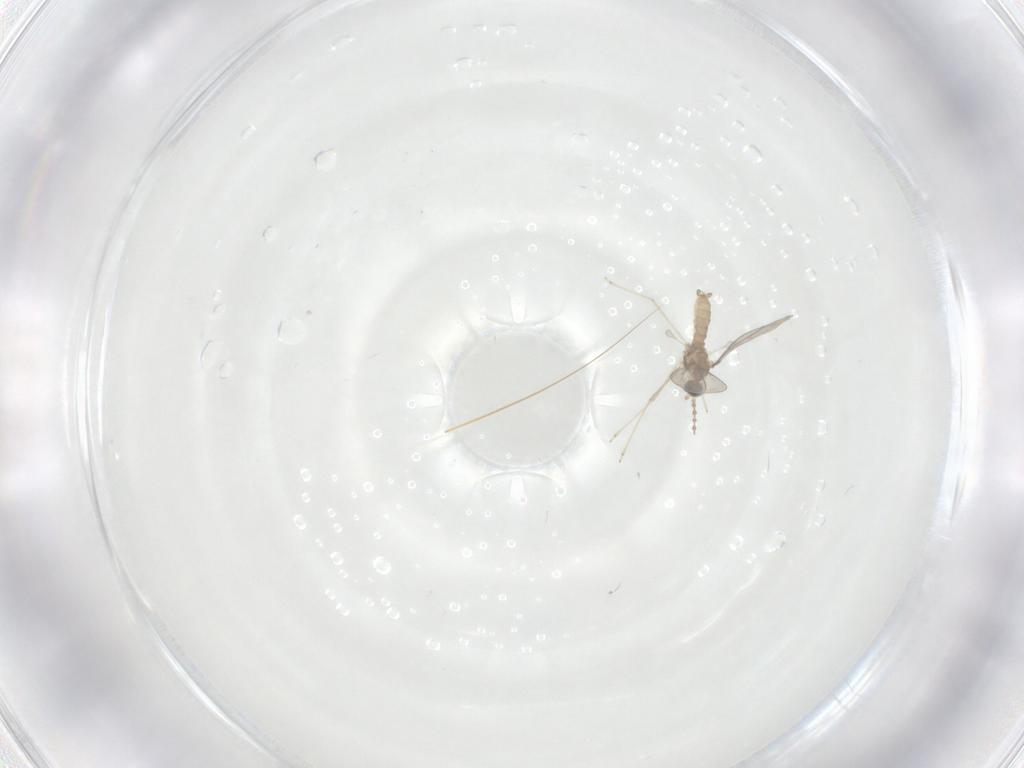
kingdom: Animalia
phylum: Arthropoda
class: Insecta
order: Diptera
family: Cecidomyiidae
